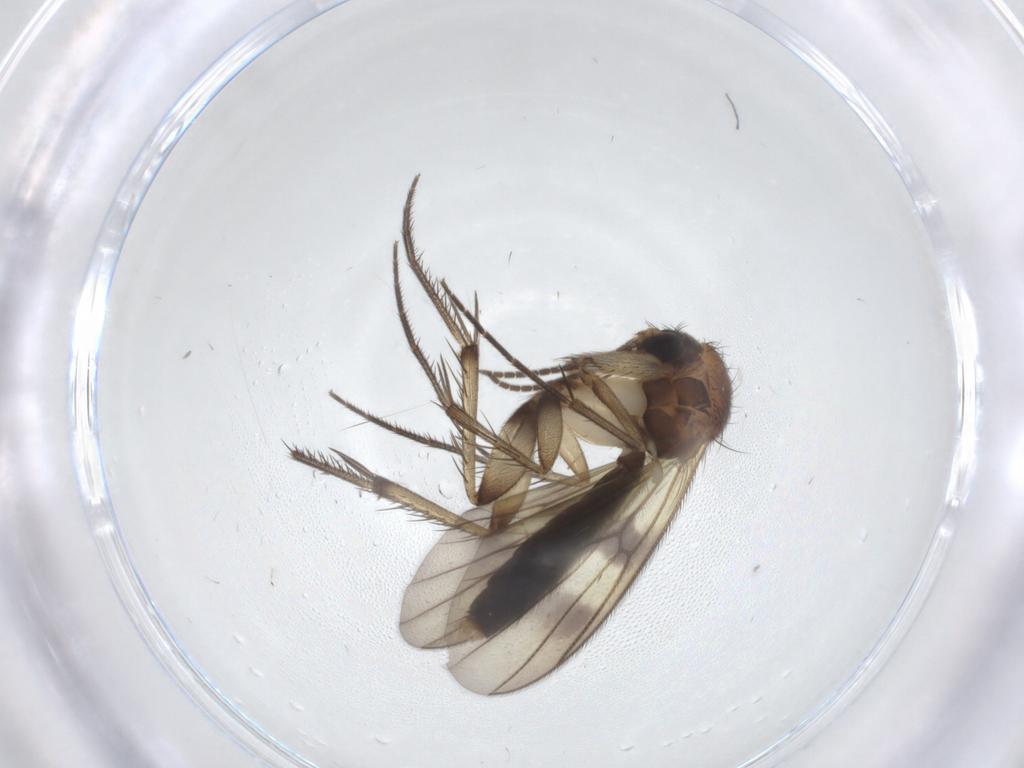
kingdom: Animalia
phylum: Arthropoda
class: Insecta
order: Diptera
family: Mycetophilidae
